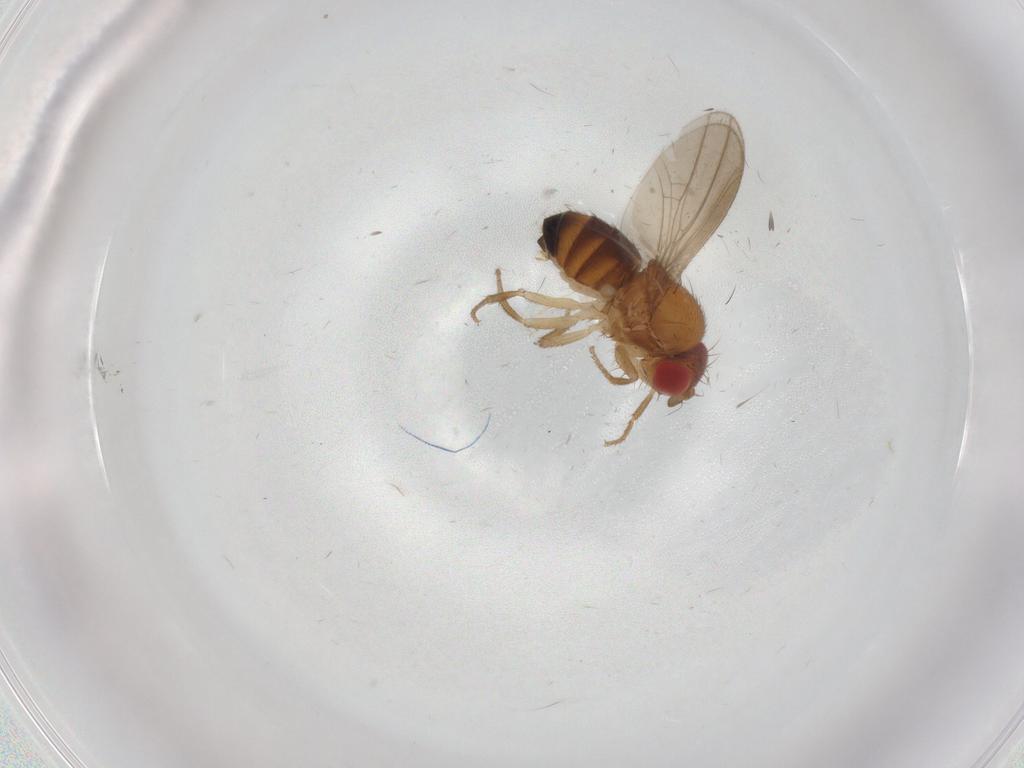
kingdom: Animalia
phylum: Arthropoda
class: Insecta
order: Diptera
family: Drosophilidae
